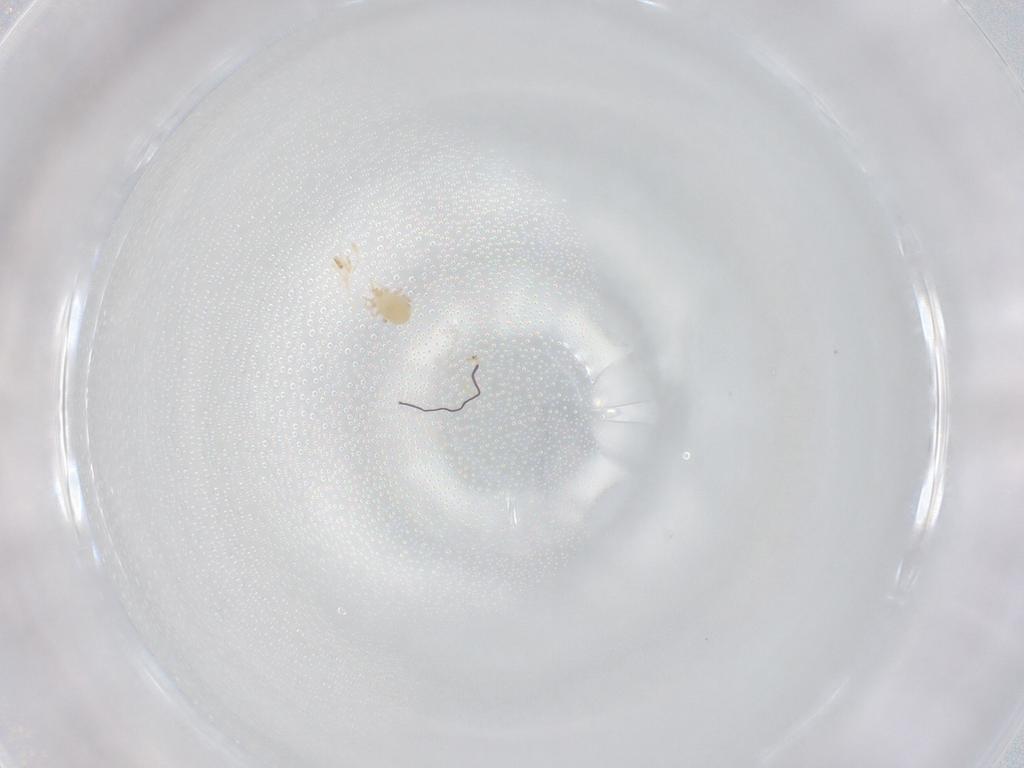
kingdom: Animalia
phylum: Arthropoda
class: Arachnida
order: Mesostigmata
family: Phytoseiidae
